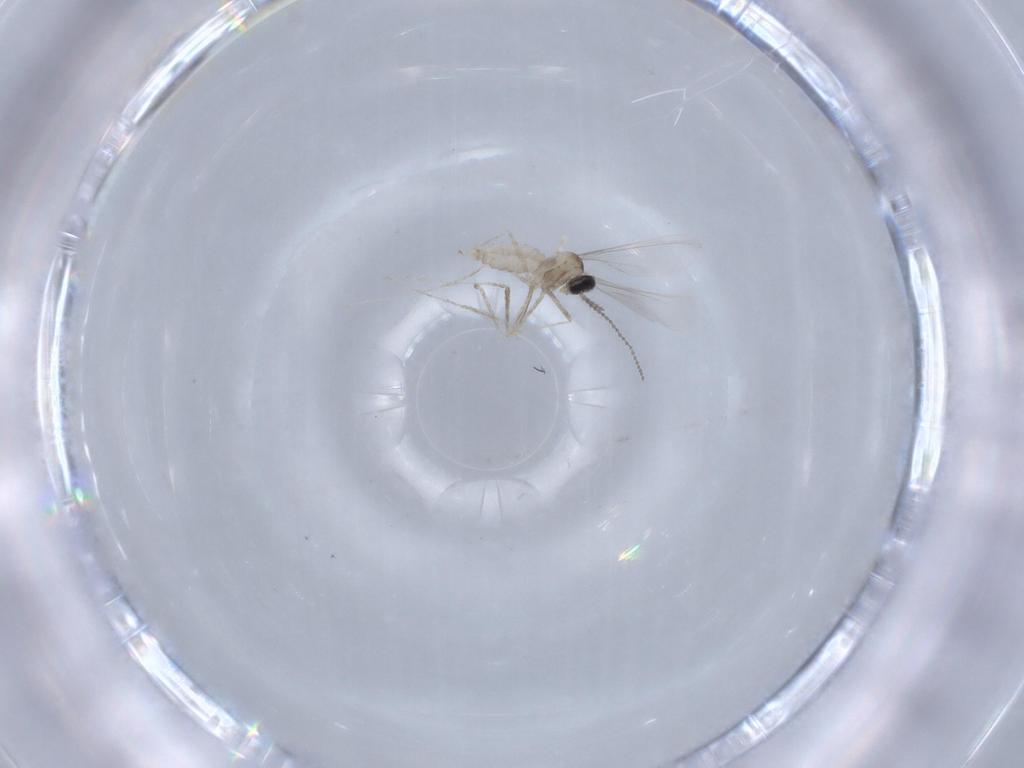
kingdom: Animalia
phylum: Arthropoda
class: Insecta
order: Diptera
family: Cecidomyiidae
